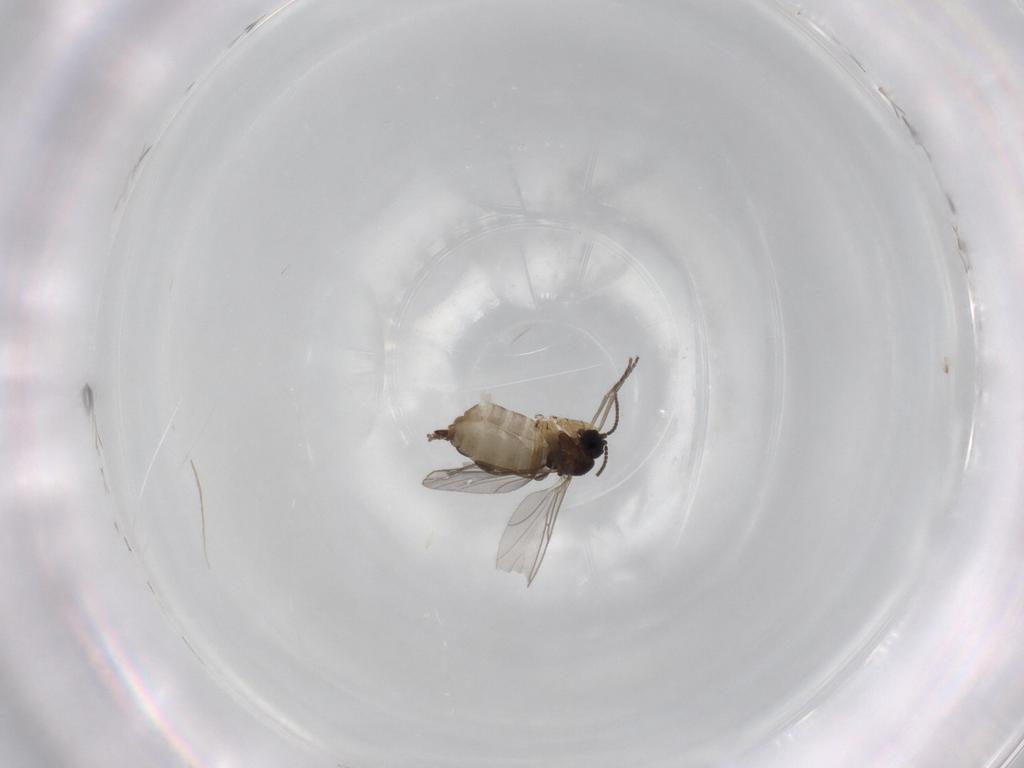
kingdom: Animalia
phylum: Arthropoda
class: Insecta
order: Diptera
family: Sciaridae
